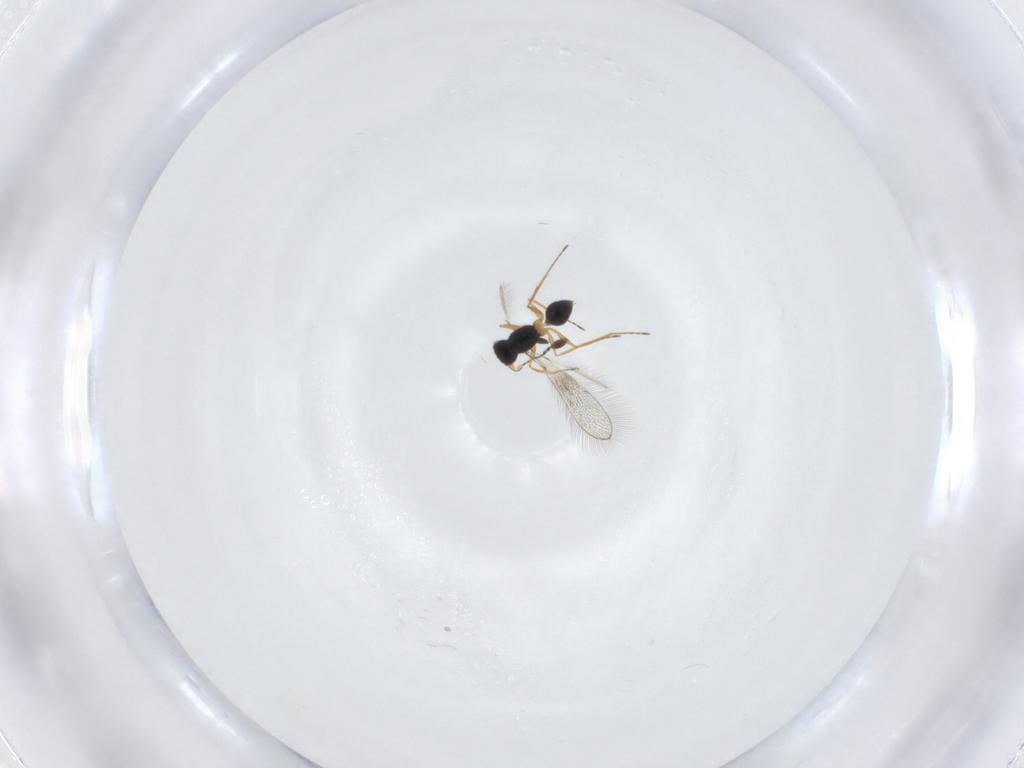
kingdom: Animalia
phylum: Arthropoda
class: Insecta
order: Hymenoptera
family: Mymaridae
